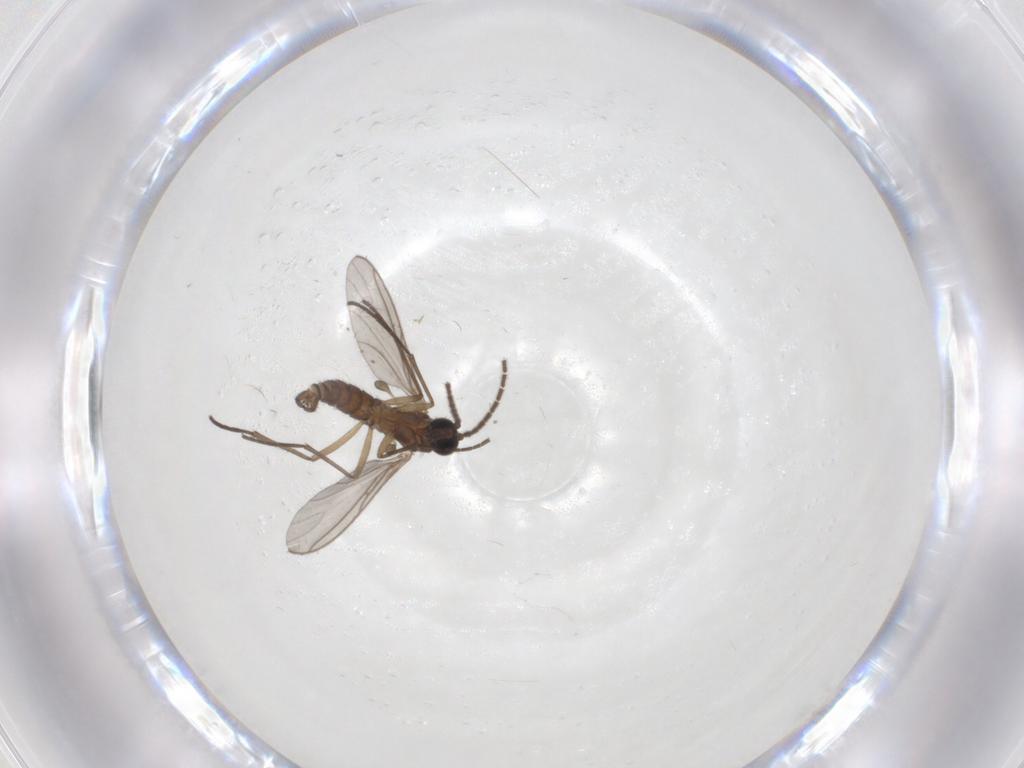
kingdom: Animalia
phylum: Arthropoda
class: Insecta
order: Diptera
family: Sciaridae
